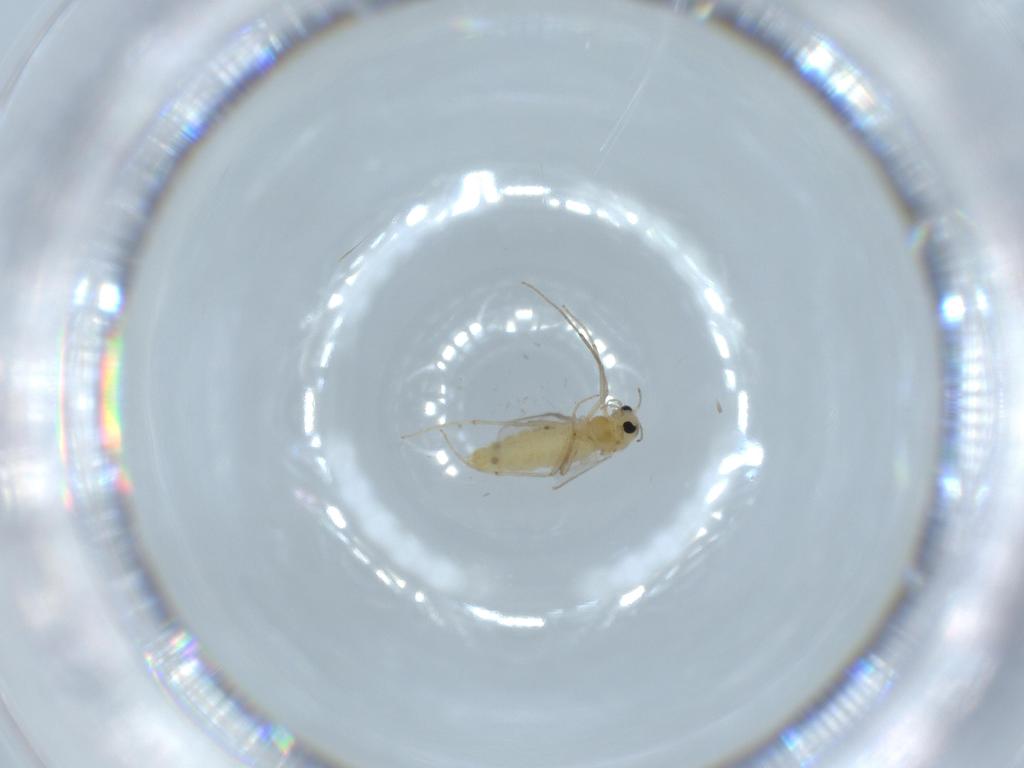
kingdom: Animalia
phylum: Arthropoda
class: Insecta
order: Diptera
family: Chironomidae
